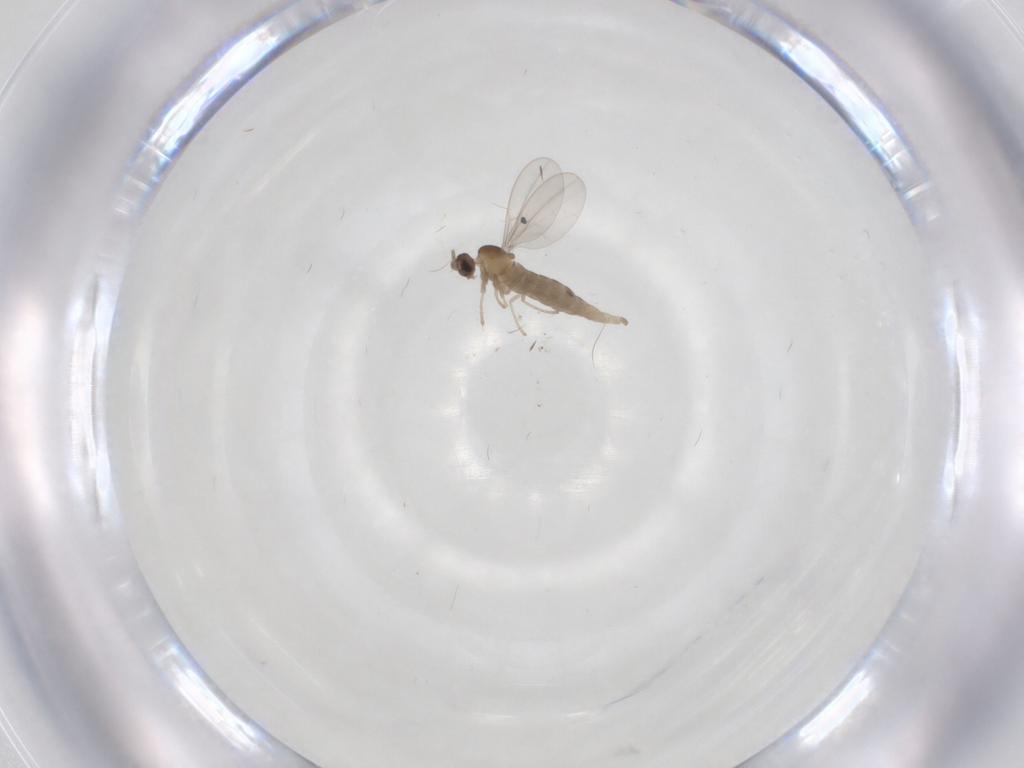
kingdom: Animalia
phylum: Arthropoda
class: Insecta
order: Diptera
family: Cecidomyiidae
